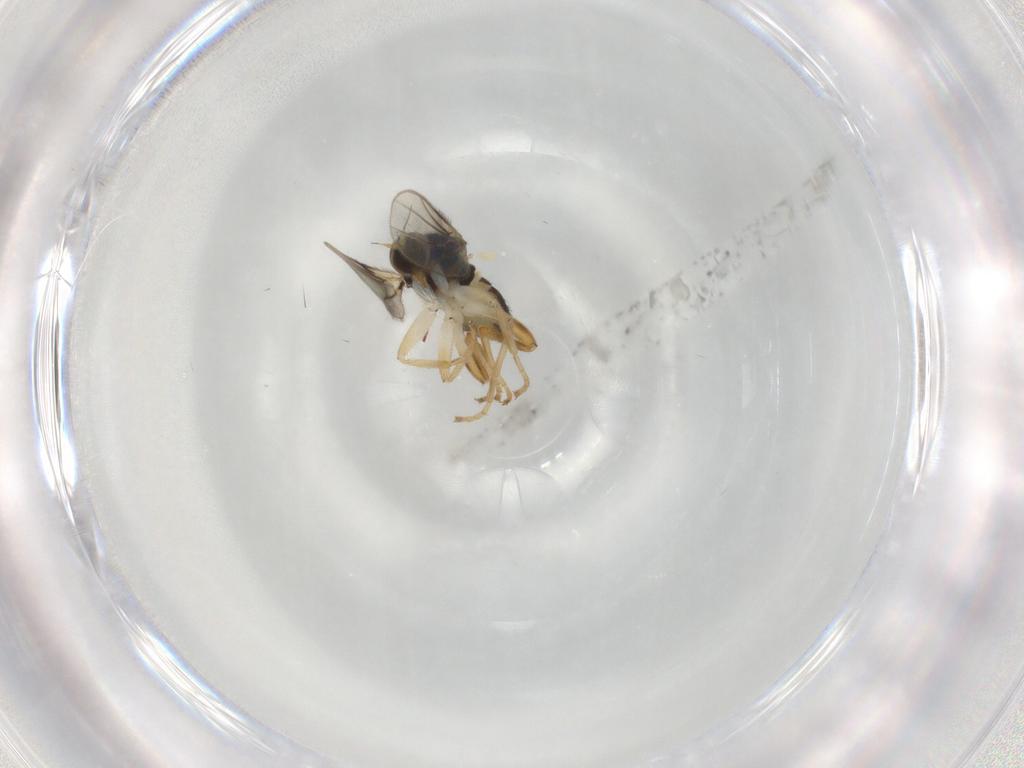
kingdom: Animalia
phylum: Arthropoda
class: Insecta
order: Diptera
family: Hybotidae
